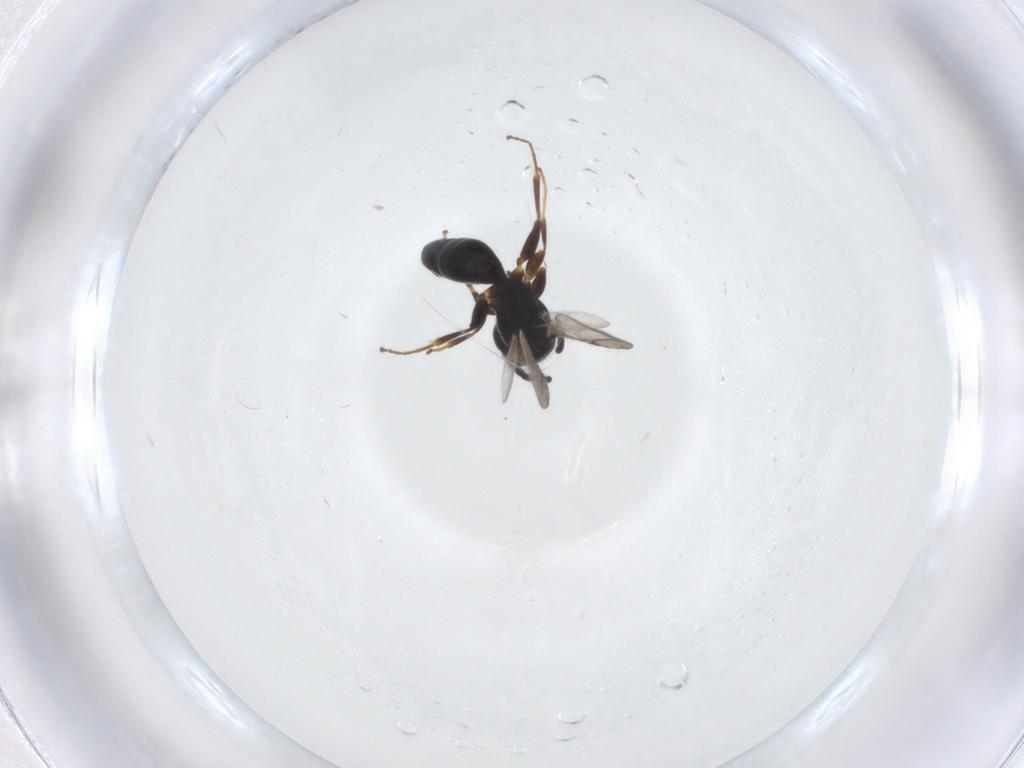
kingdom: Animalia
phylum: Arthropoda
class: Insecta
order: Hymenoptera
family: Bethylidae
